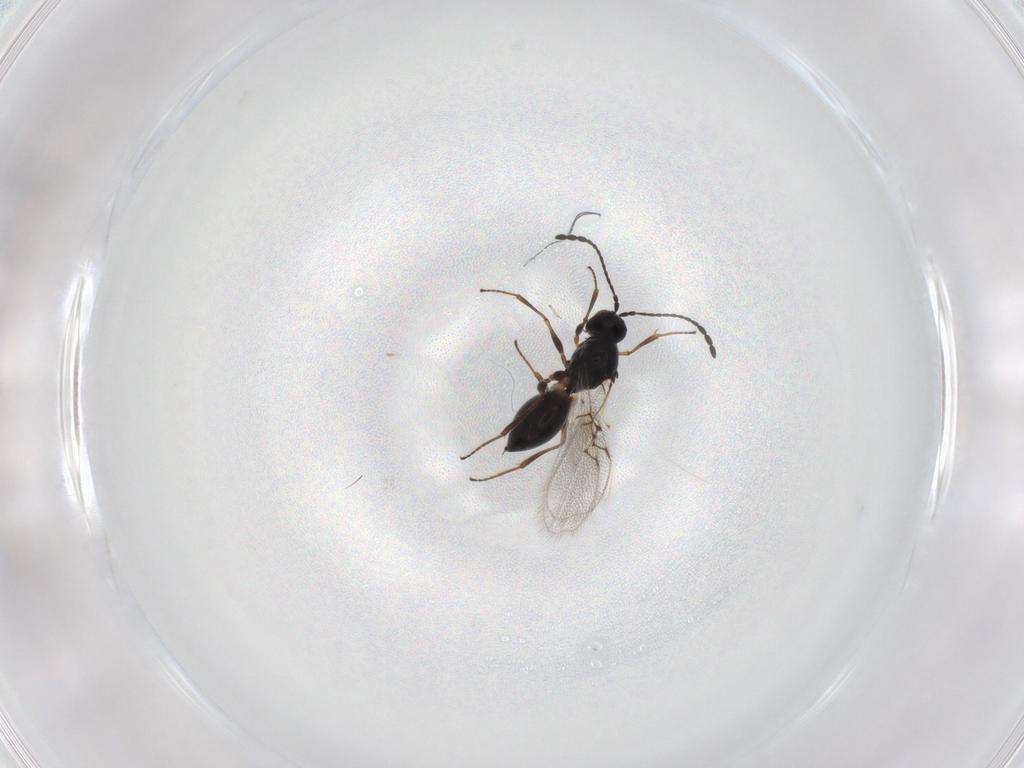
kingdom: Animalia
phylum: Arthropoda
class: Insecta
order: Hymenoptera
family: Figitidae
